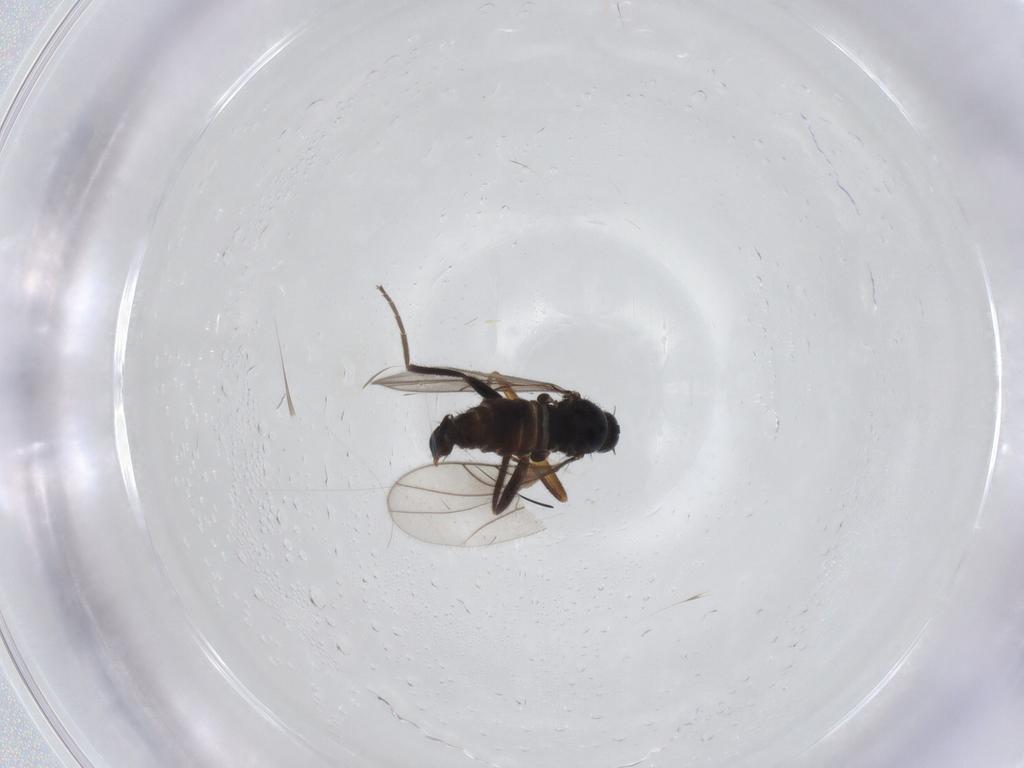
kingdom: Animalia
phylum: Arthropoda
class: Insecta
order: Diptera
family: Hybotidae
